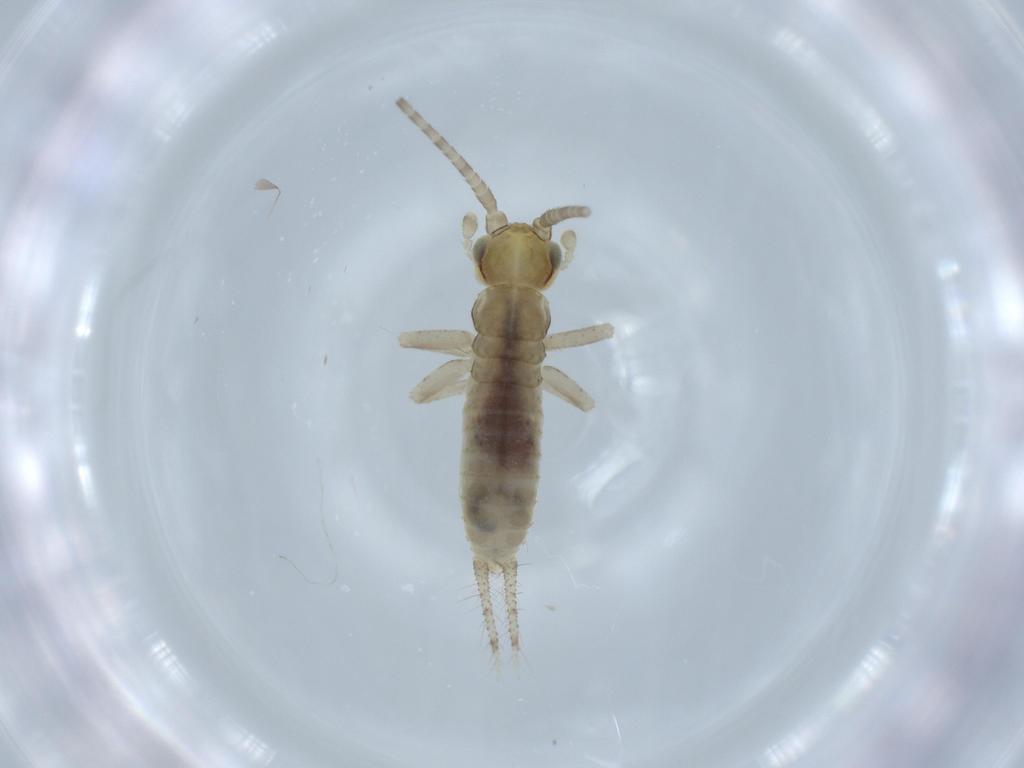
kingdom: Animalia
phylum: Arthropoda
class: Insecta
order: Orthoptera
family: Gryllidae
